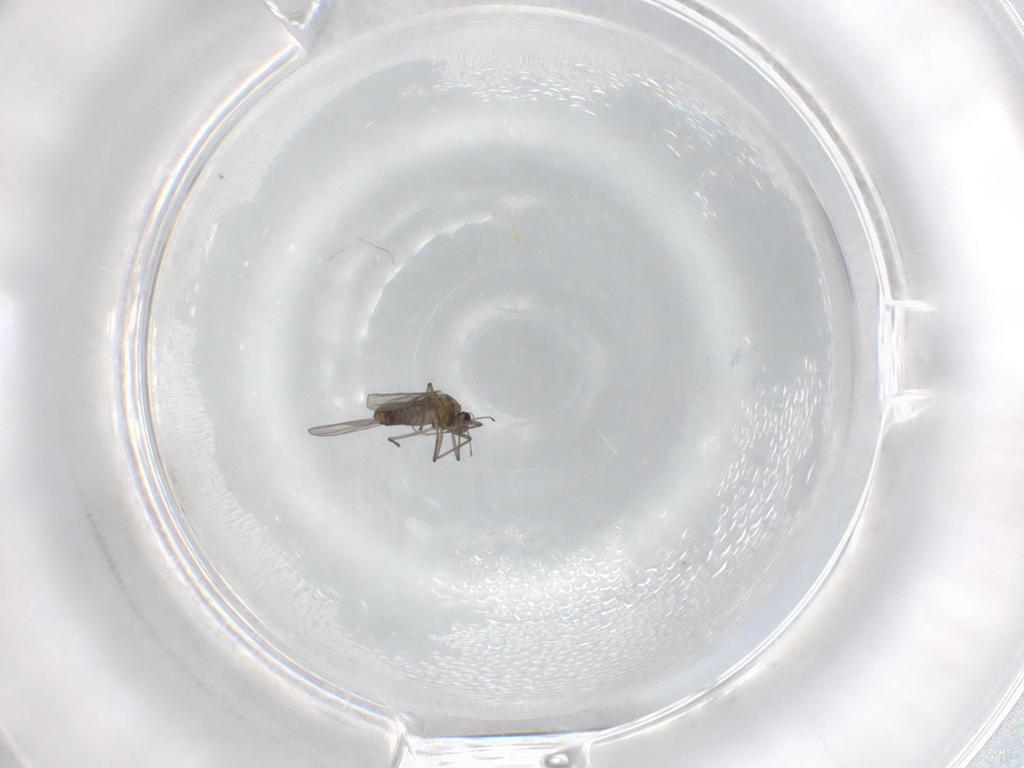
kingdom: Animalia
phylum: Arthropoda
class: Insecta
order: Diptera
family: Chironomidae
